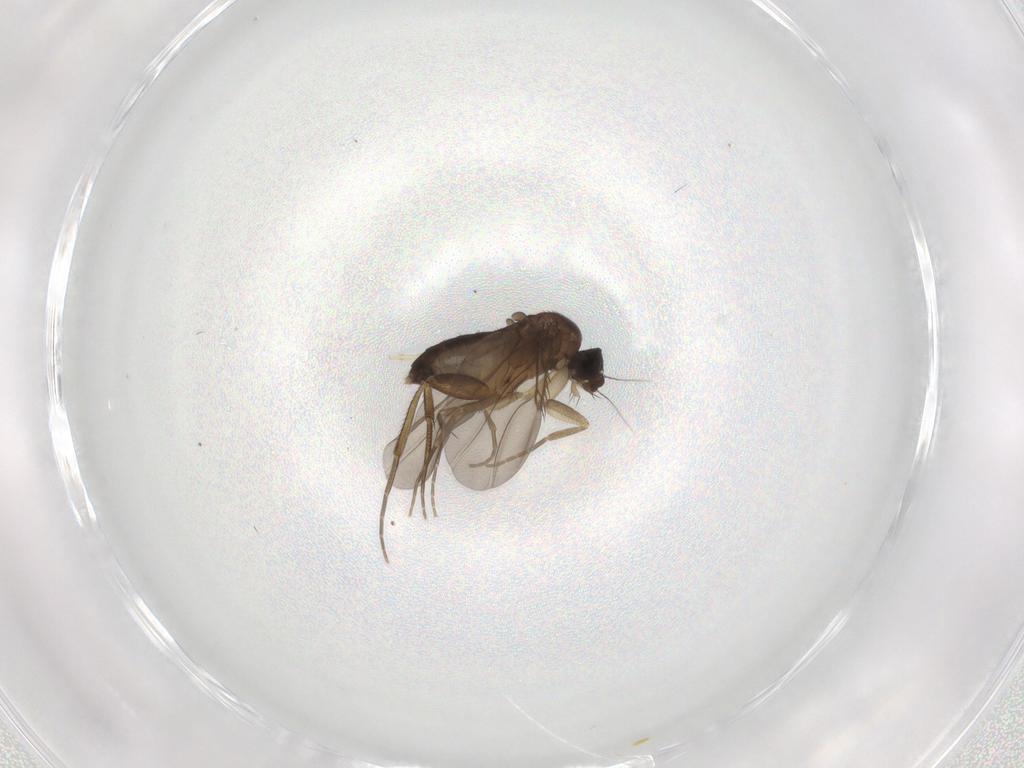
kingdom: Animalia
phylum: Arthropoda
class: Insecta
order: Diptera
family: Phoridae
